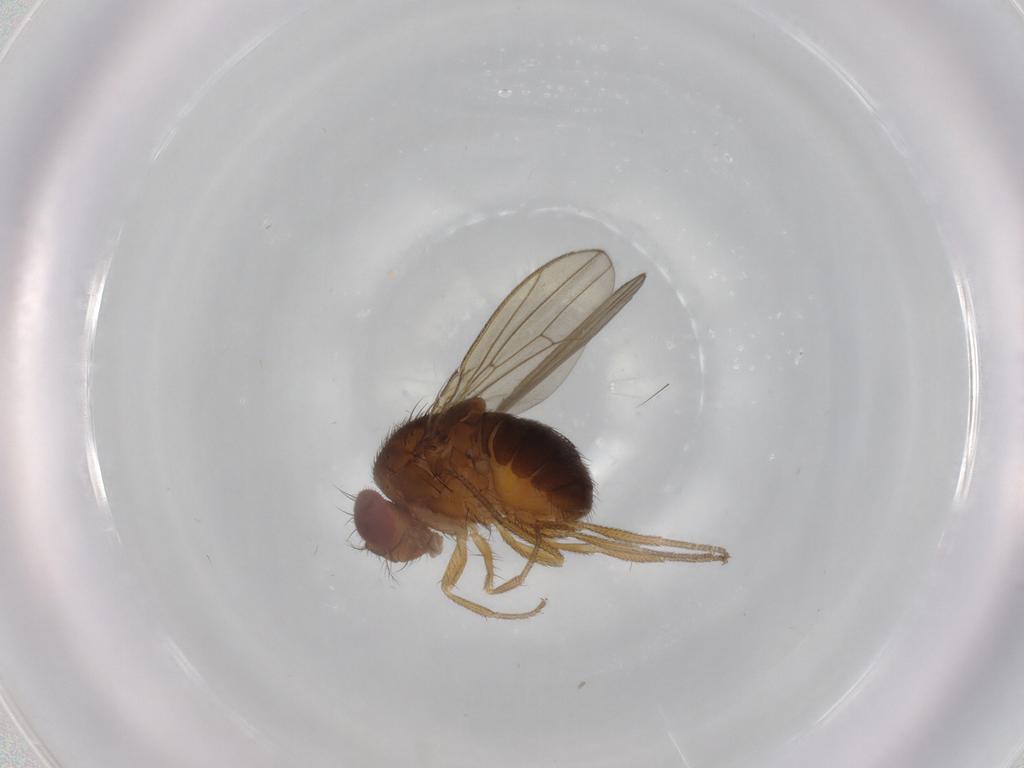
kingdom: Animalia
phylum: Arthropoda
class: Insecta
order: Diptera
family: Drosophilidae
